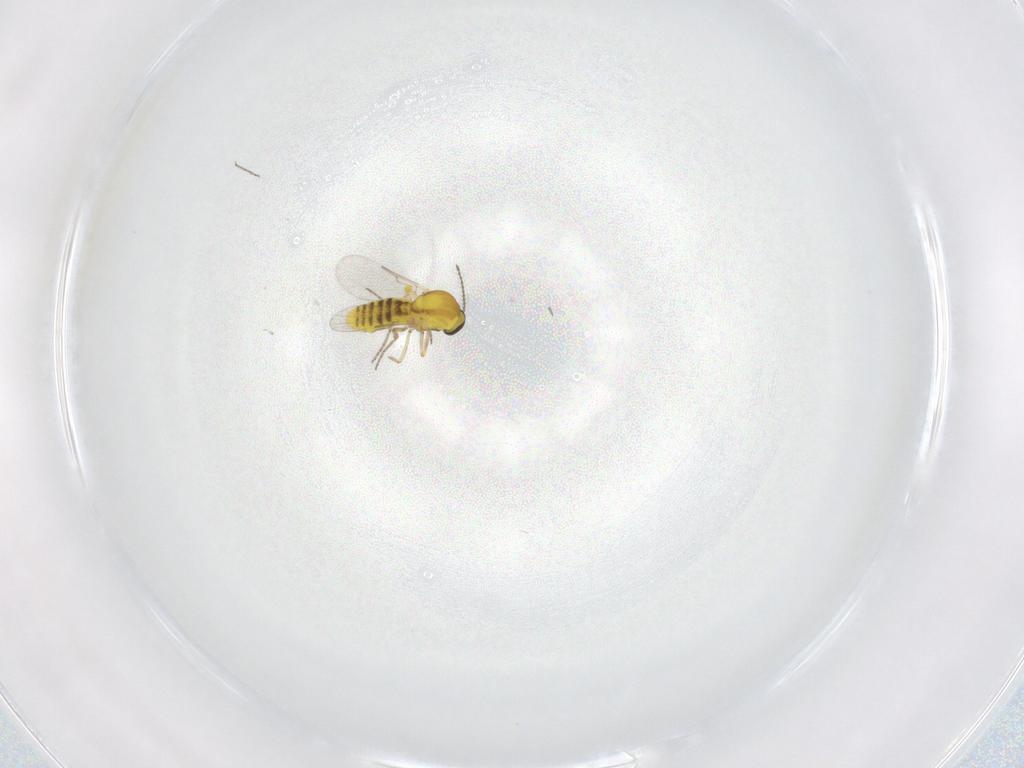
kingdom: Animalia
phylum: Arthropoda
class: Insecta
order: Diptera
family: Ceratopogonidae
